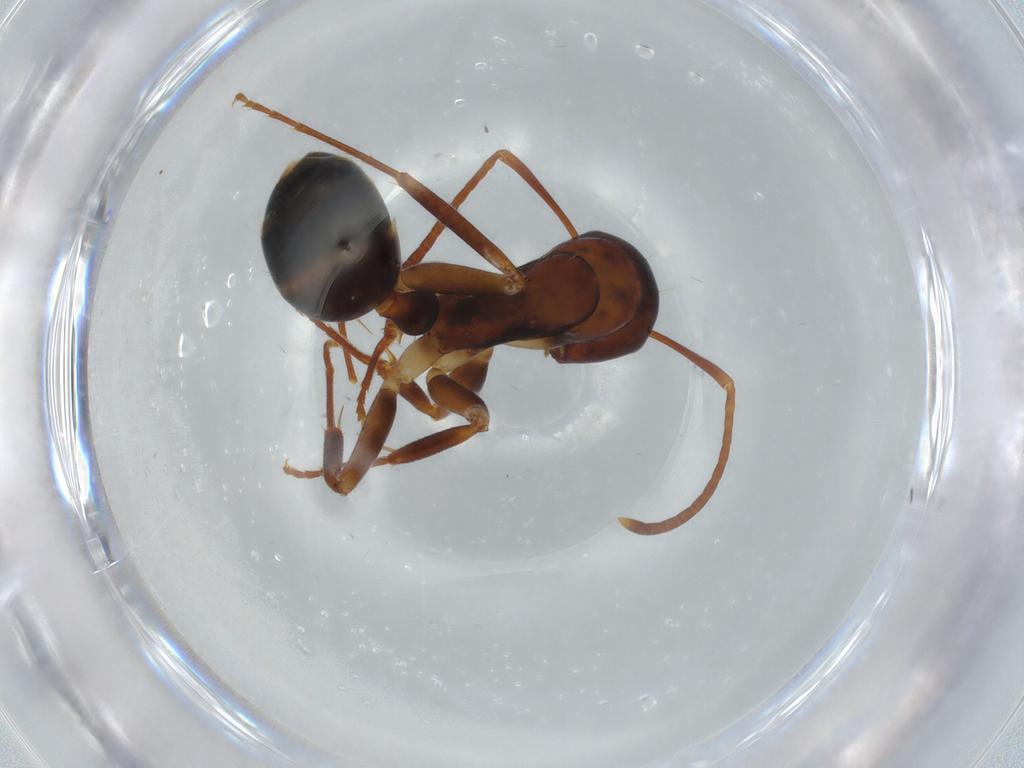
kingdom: Animalia
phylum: Arthropoda
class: Insecta
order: Hymenoptera
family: Formicidae
